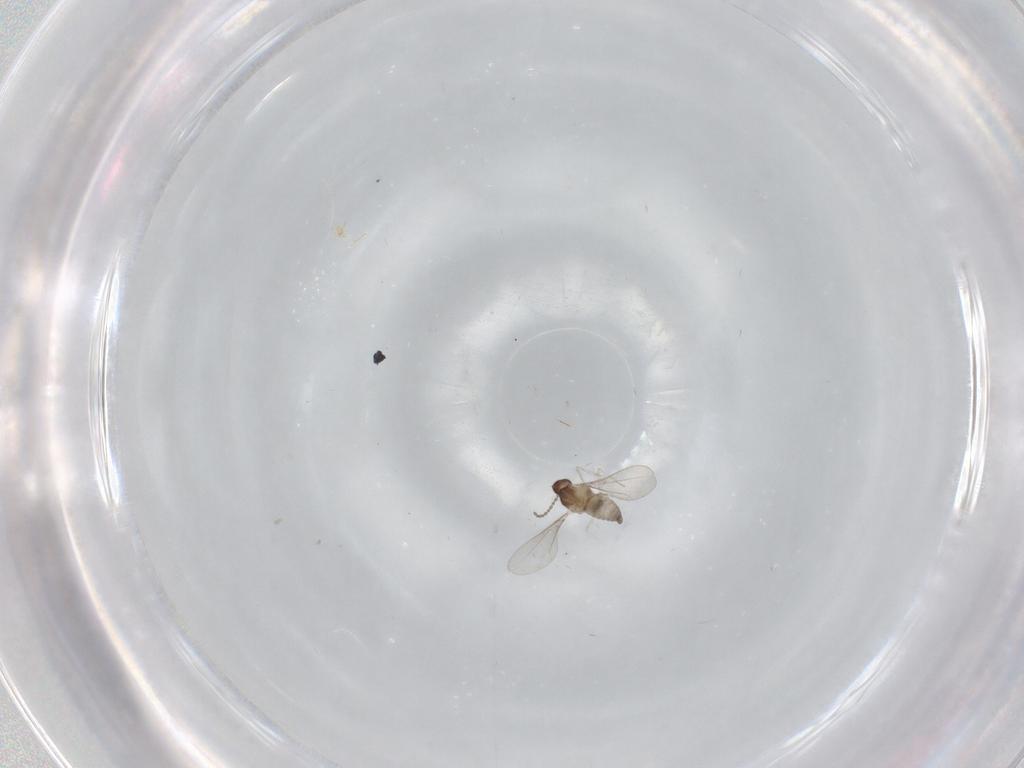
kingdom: Animalia
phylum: Arthropoda
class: Insecta
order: Diptera
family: Cecidomyiidae
